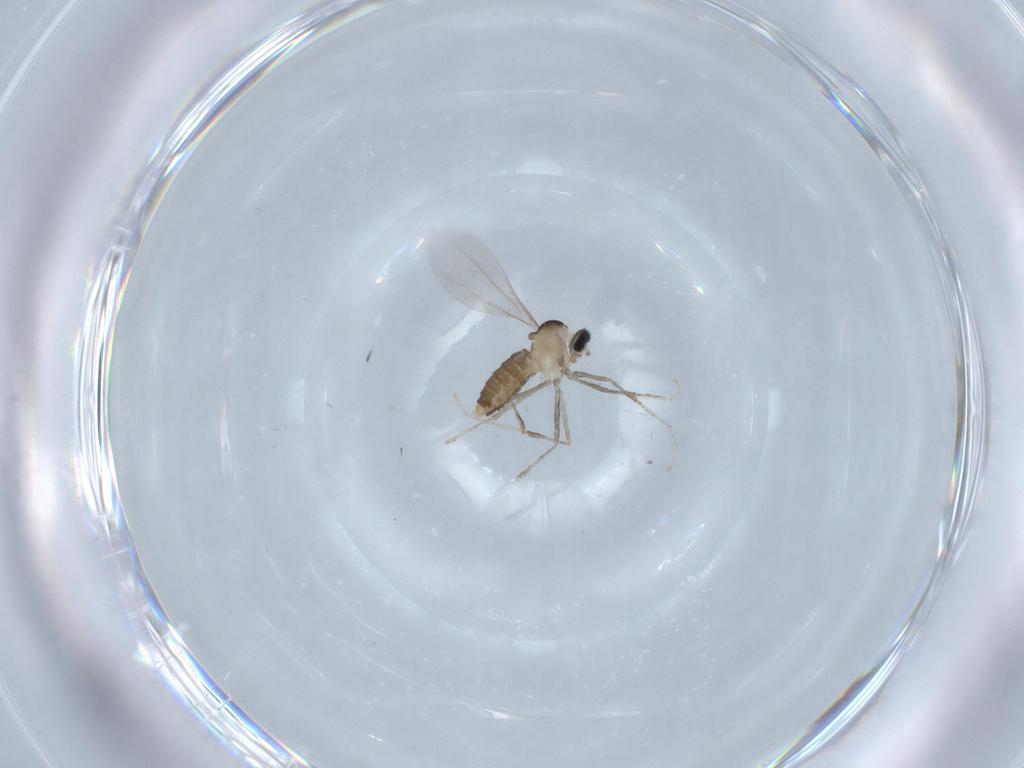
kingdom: Animalia
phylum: Arthropoda
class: Insecta
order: Diptera
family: Cecidomyiidae
